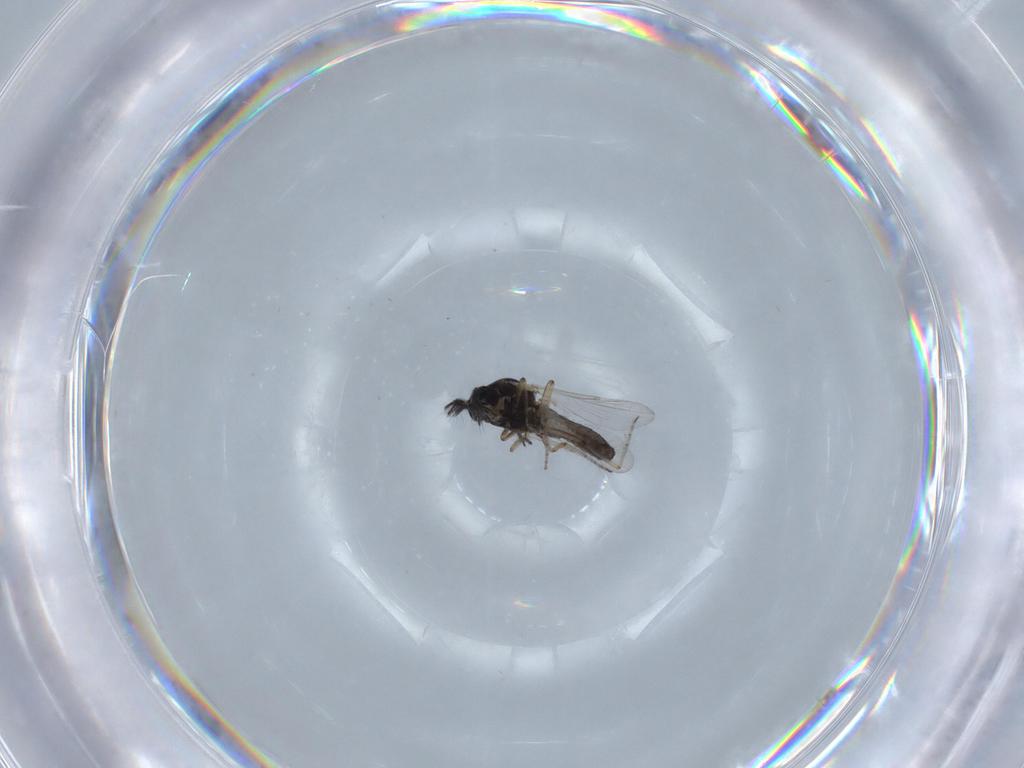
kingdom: Animalia
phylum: Arthropoda
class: Insecta
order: Diptera
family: Ceratopogonidae
